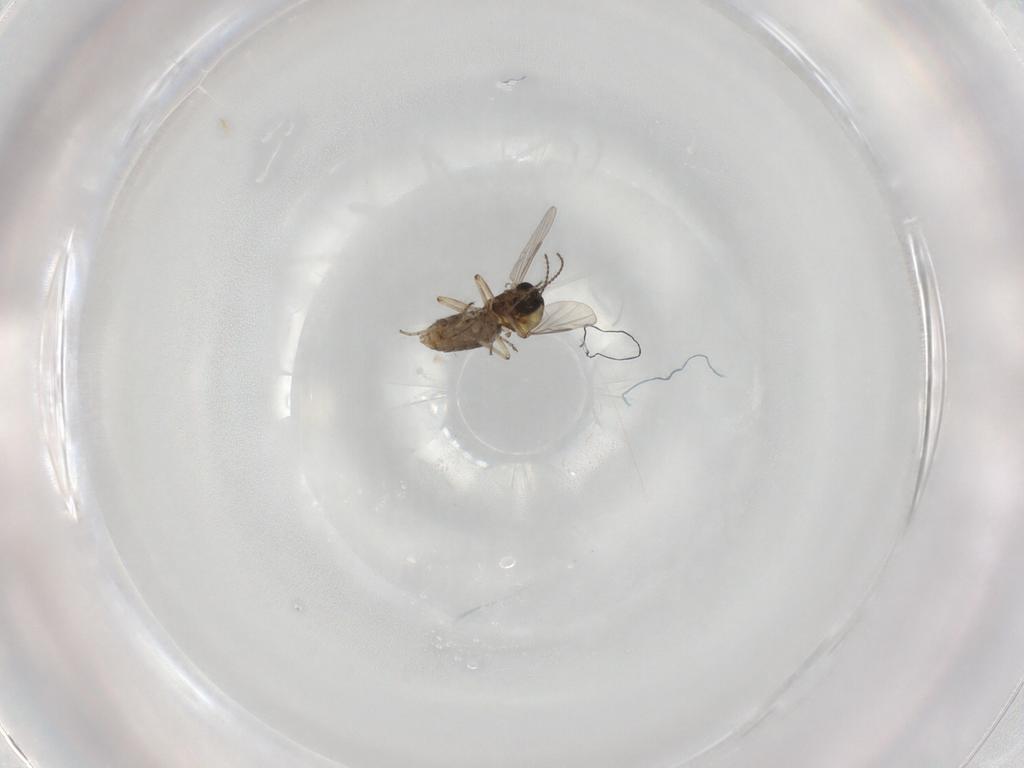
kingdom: Animalia
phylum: Arthropoda
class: Insecta
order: Diptera
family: Ceratopogonidae
